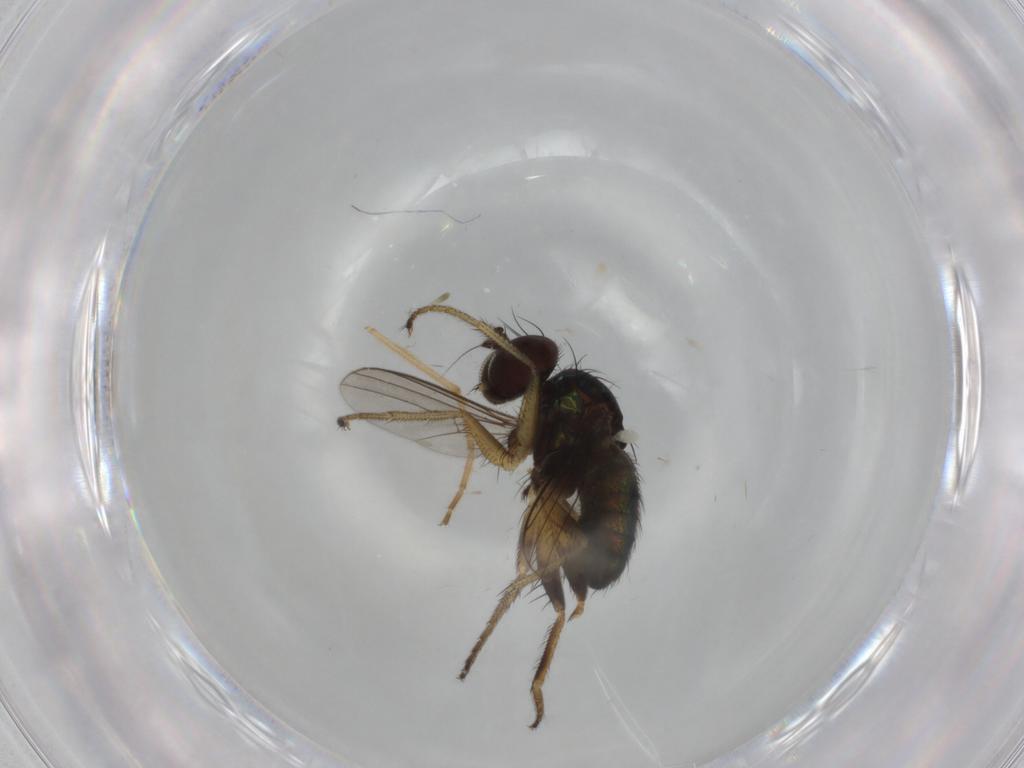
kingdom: Animalia
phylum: Arthropoda
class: Insecta
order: Diptera
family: Dolichopodidae
